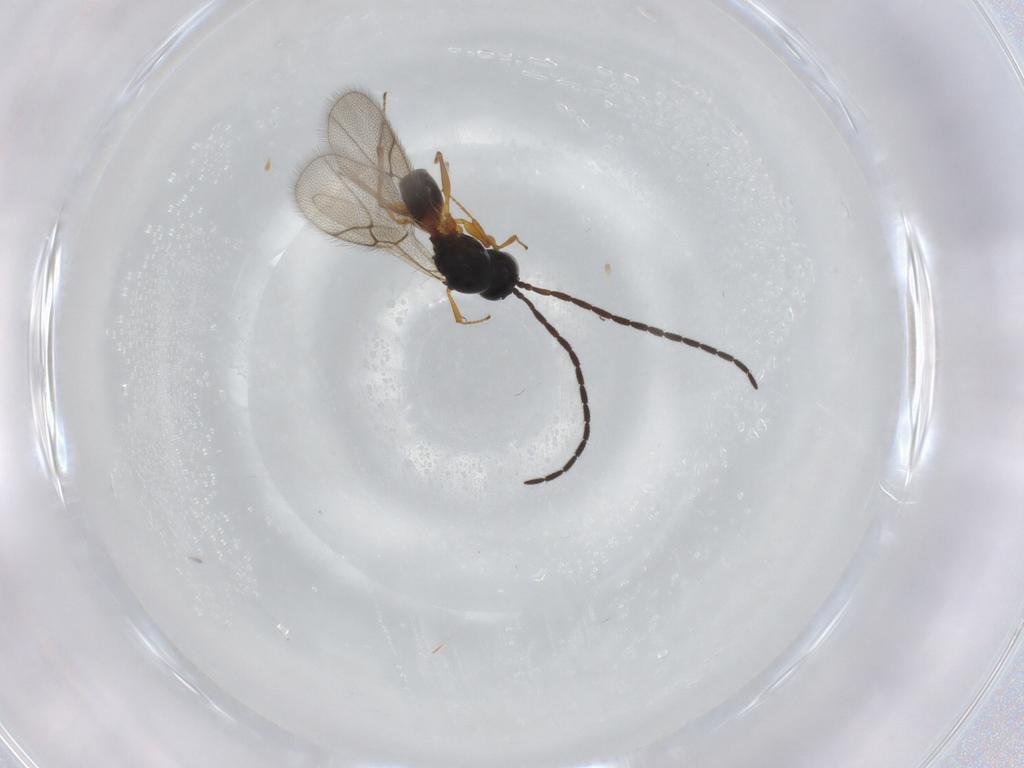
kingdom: Animalia
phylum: Arthropoda
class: Insecta
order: Hymenoptera
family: Figitidae
